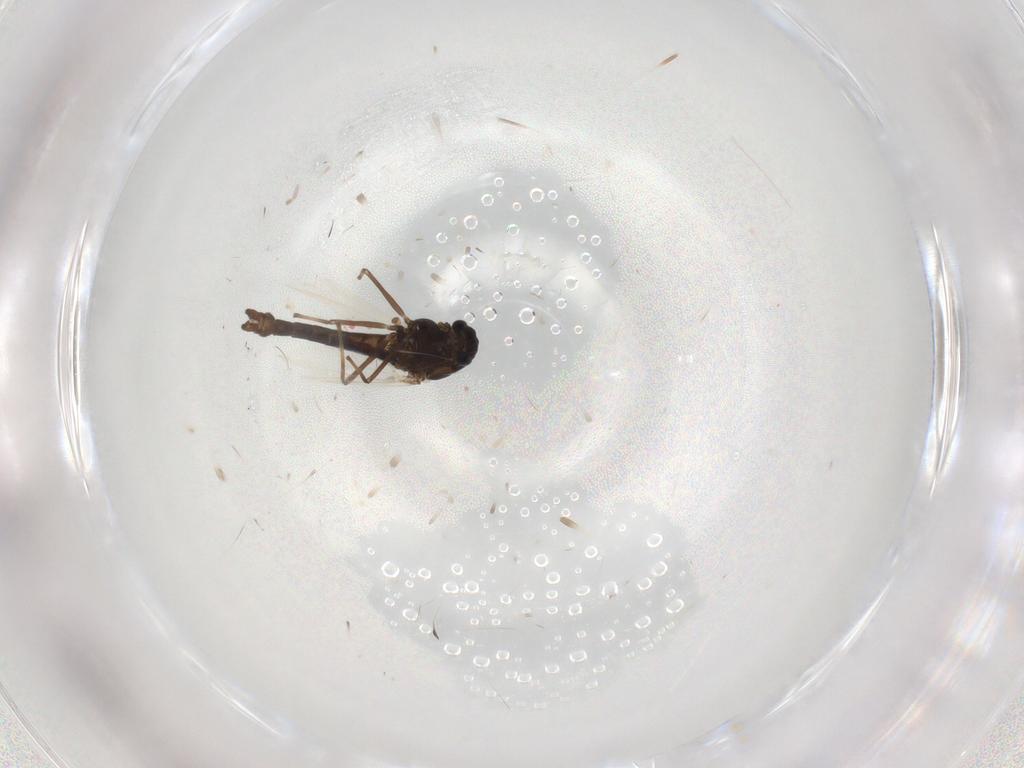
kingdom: Animalia
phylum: Arthropoda
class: Insecta
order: Diptera
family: Chironomidae
